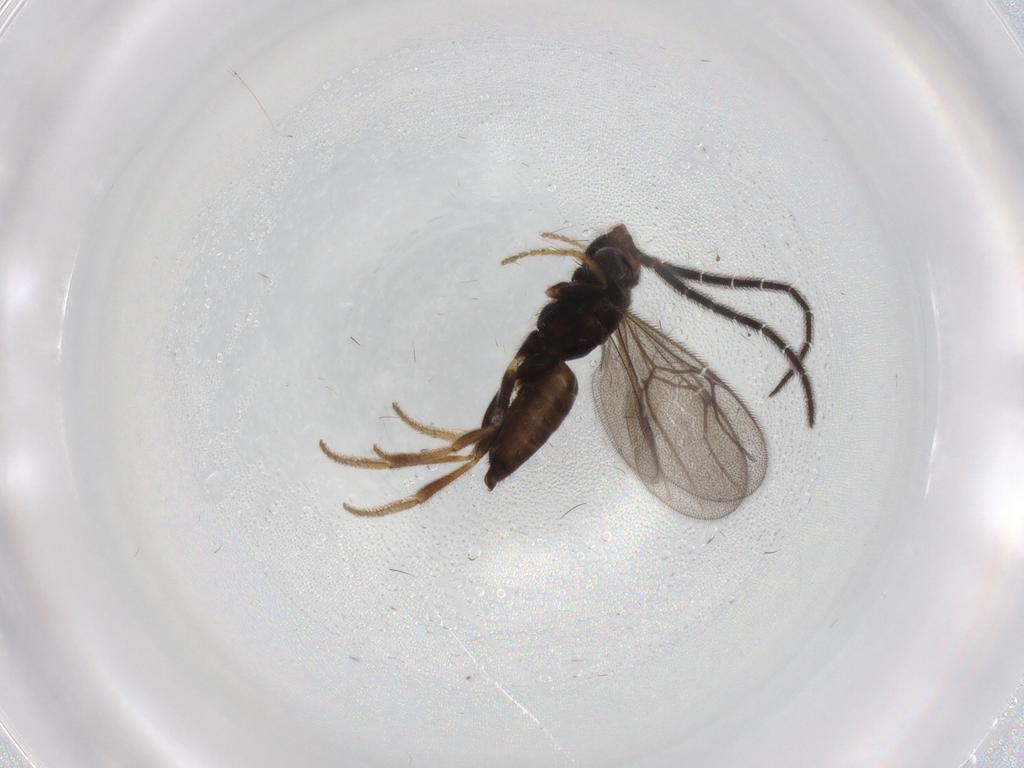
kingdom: Animalia
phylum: Arthropoda
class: Insecta
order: Hymenoptera
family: Dryinidae
